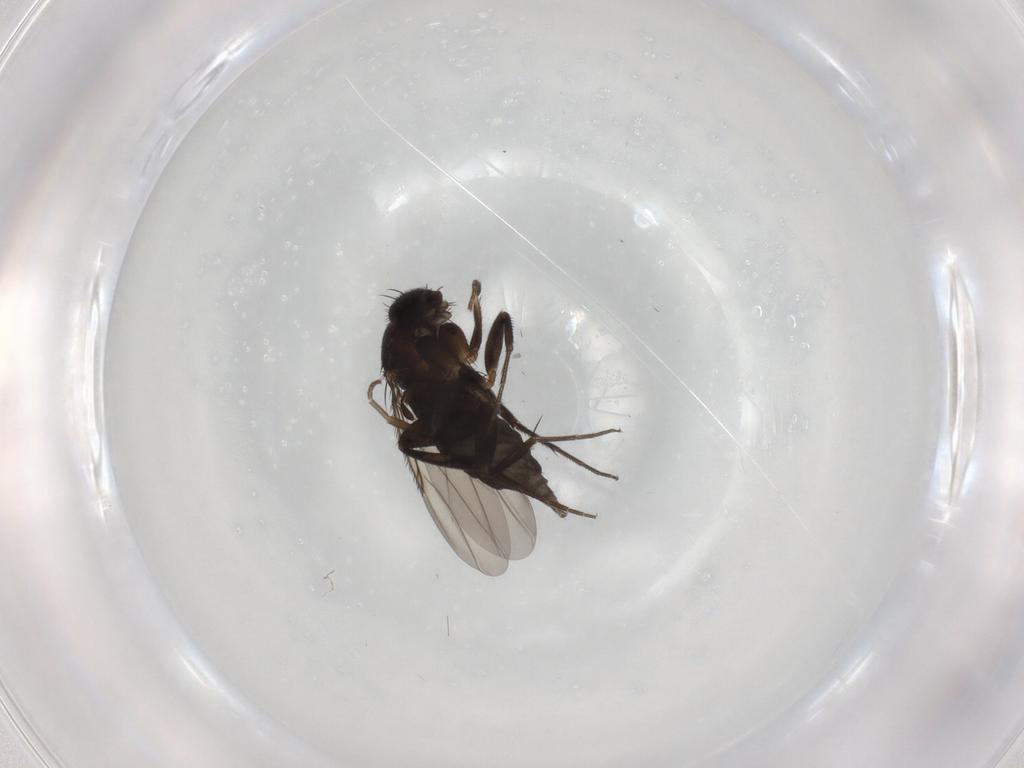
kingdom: Animalia
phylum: Arthropoda
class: Insecta
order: Diptera
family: Phoridae
